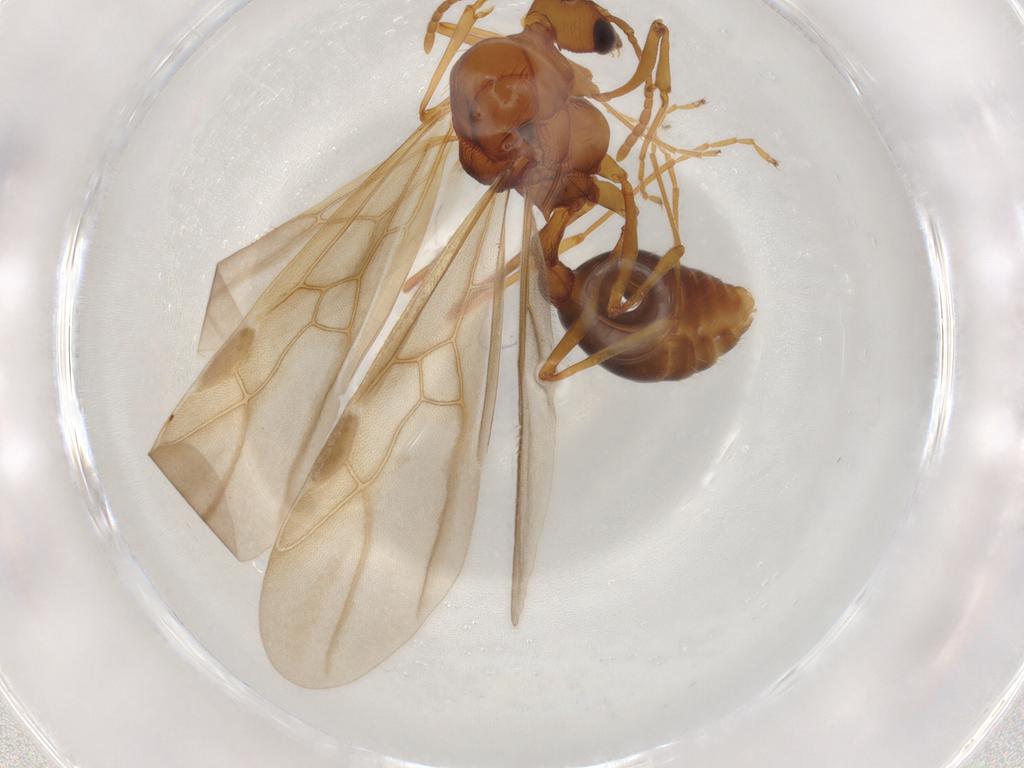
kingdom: Animalia
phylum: Arthropoda
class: Insecta
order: Hymenoptera
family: Formicidae
